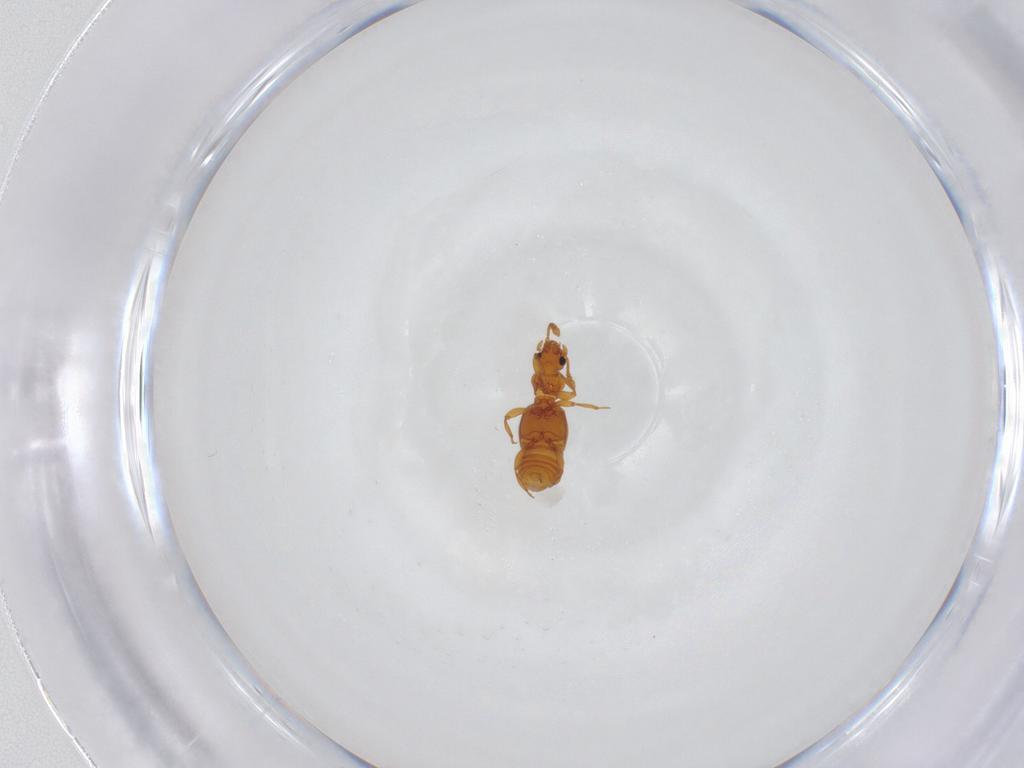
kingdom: Animalia
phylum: Arthropoda
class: Insecta
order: Coleoptera
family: Staphylinidae
